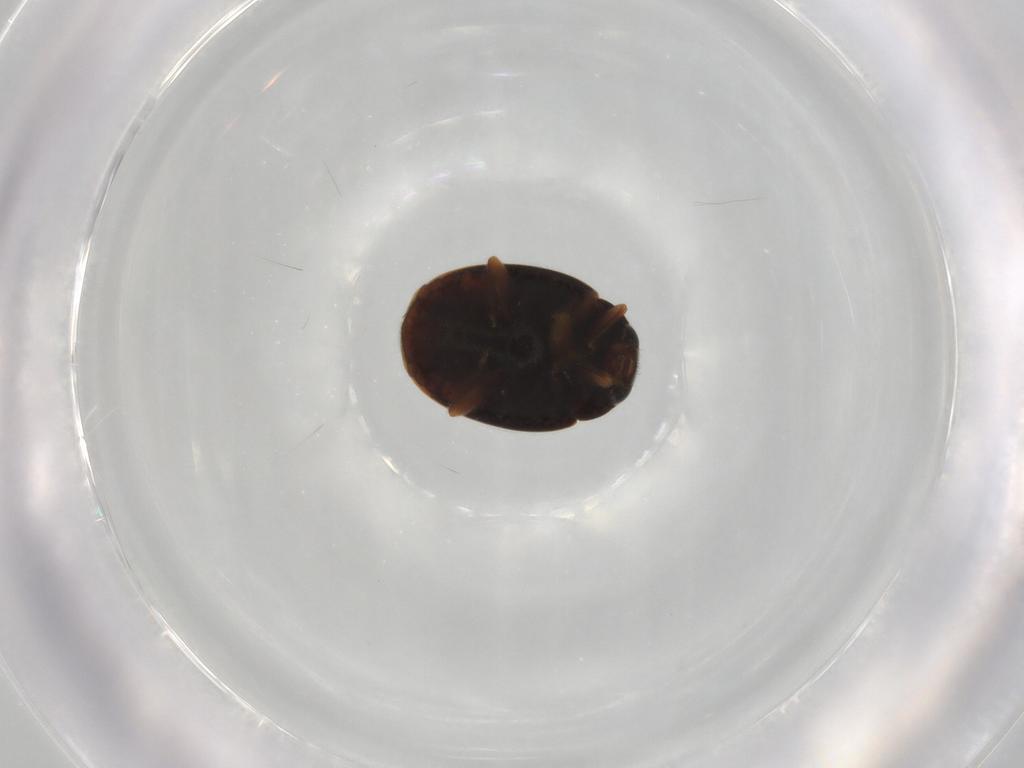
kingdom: Animalia
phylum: Arthropoda
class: Insecta
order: Coleoptera
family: Coccinellidae
